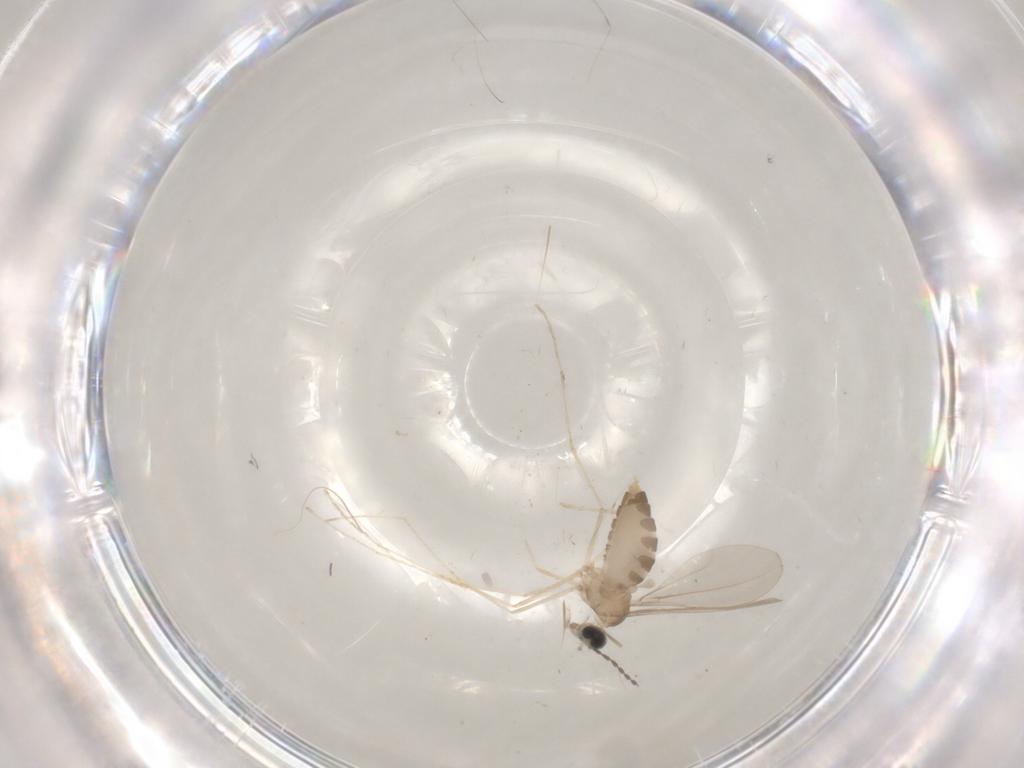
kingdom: Animalia
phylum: Arthropoda
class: Insecta
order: Diptera
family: Cecidomyiidae
